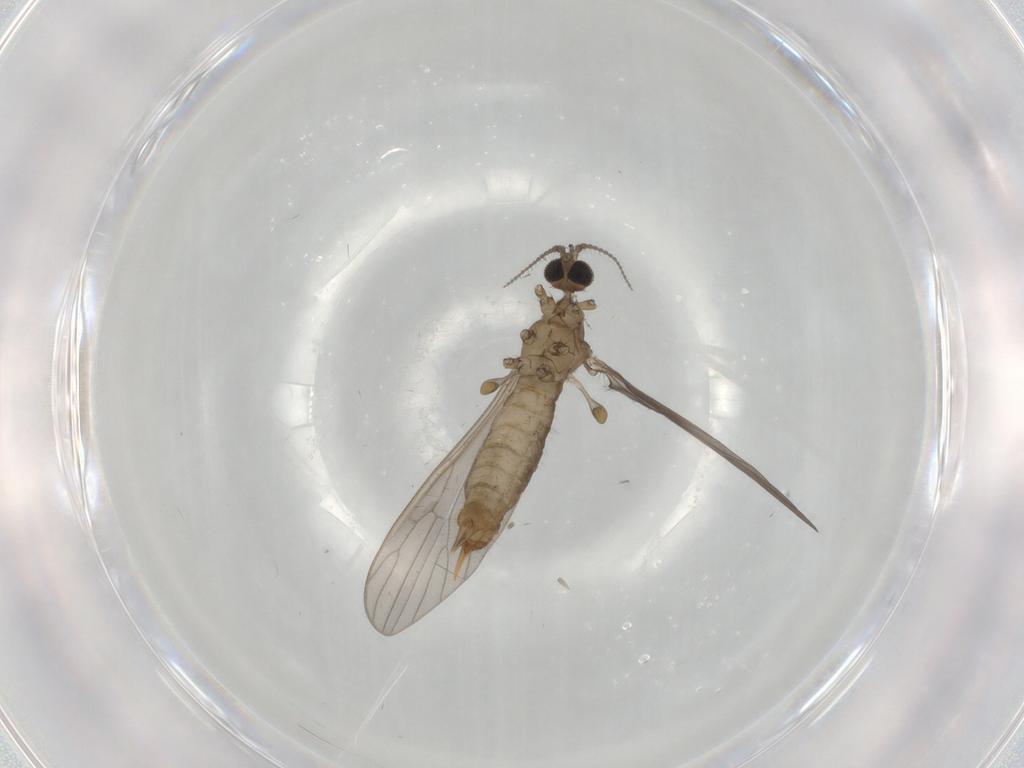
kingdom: Animalia
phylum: Arthropoda
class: Insecta
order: Diptera
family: Limoniidae
